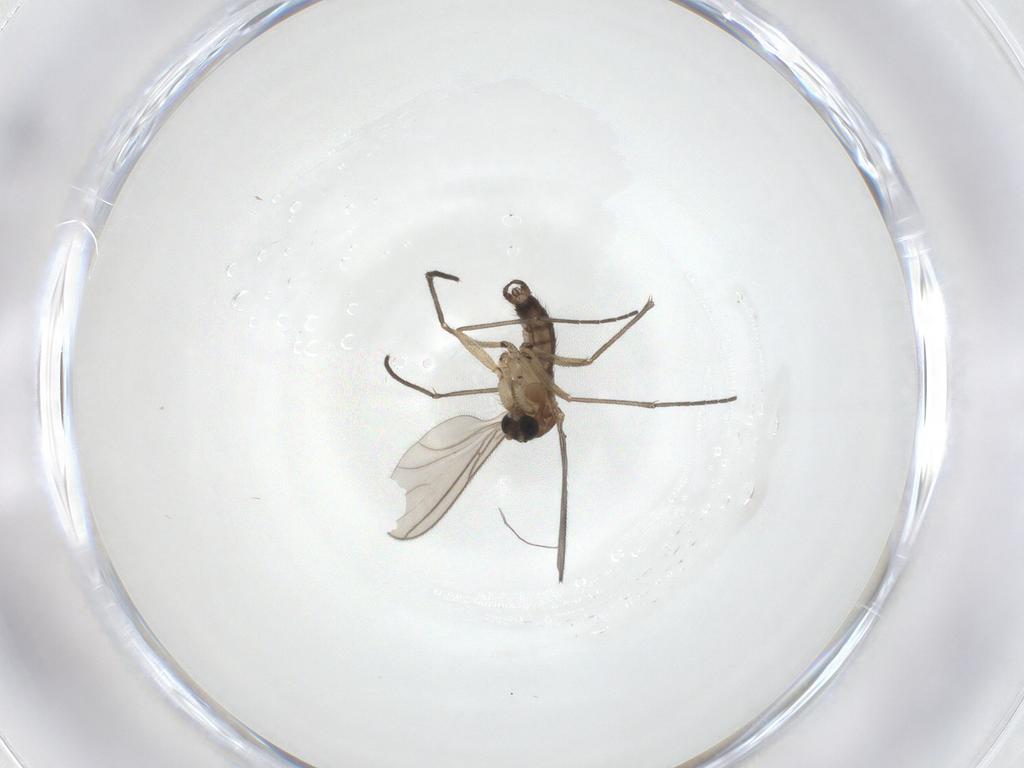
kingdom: Animalia
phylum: Arthropoda
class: Insecta
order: Diptera
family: Sciaridae
